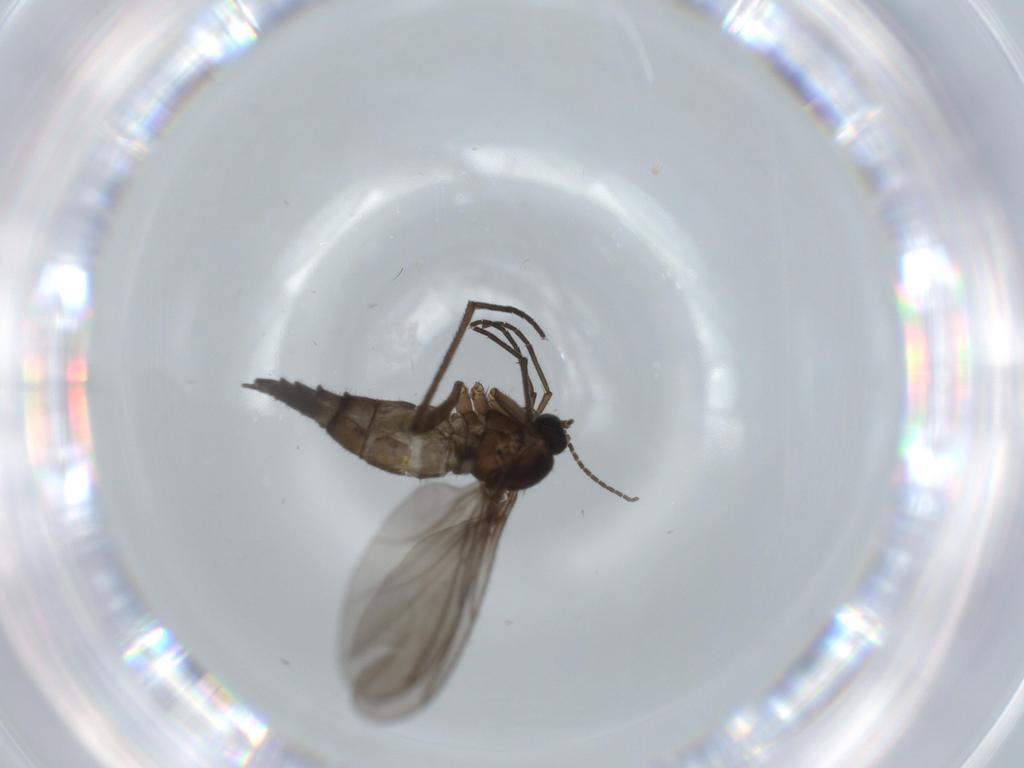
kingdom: Animalia
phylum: Arthropoda
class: Insecta
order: Diptera
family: Sciaridae
